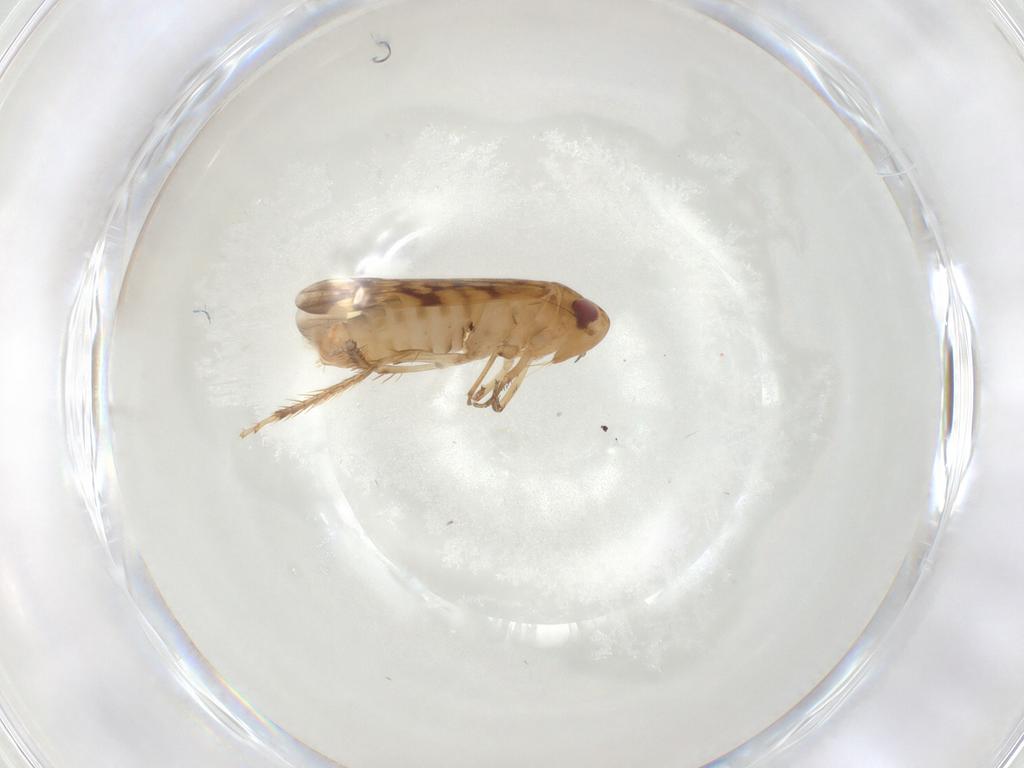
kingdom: Animalia
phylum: Arthropoda
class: Insecta
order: Hemiptera
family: Cicadellidae
